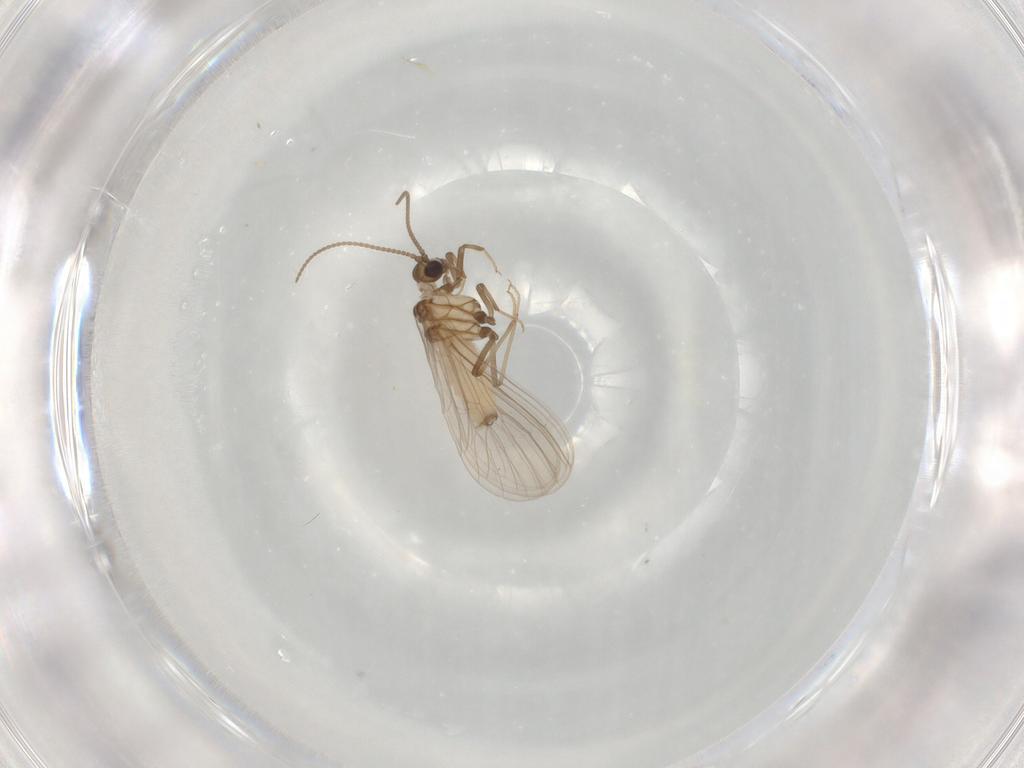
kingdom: Animalia
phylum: Arthropoda
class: Insecta
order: Neuroptera
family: Coniopterygidae
